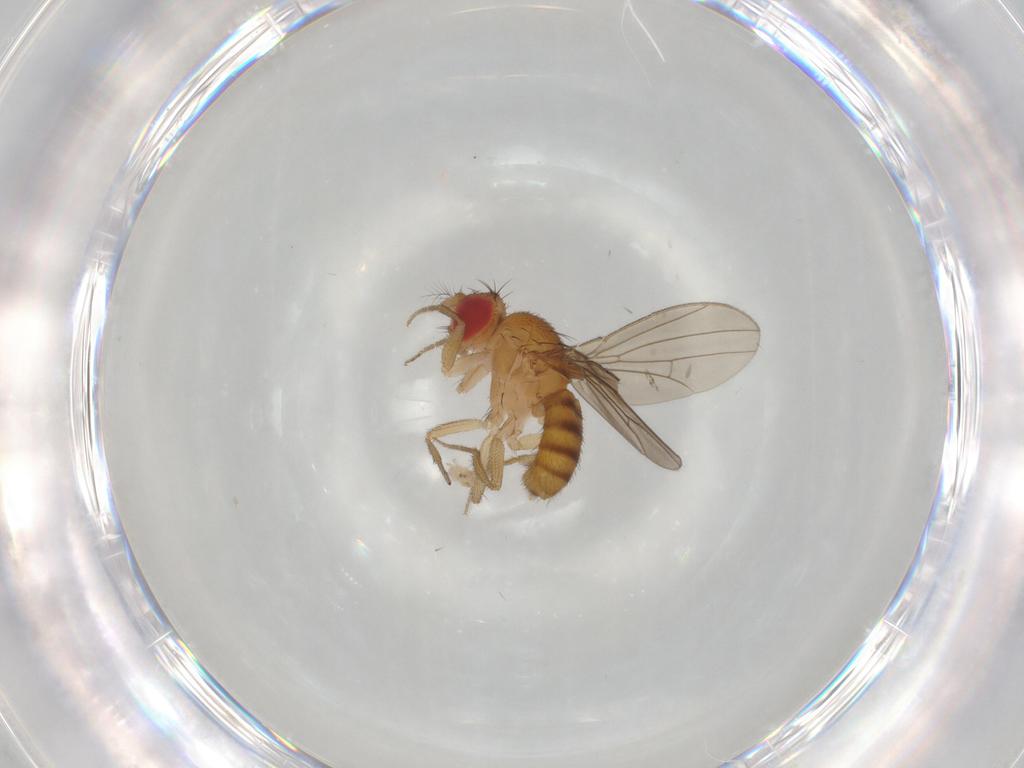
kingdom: Animalia
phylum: Arthropoda
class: Insecta
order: Diptera
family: Drosophilidae
